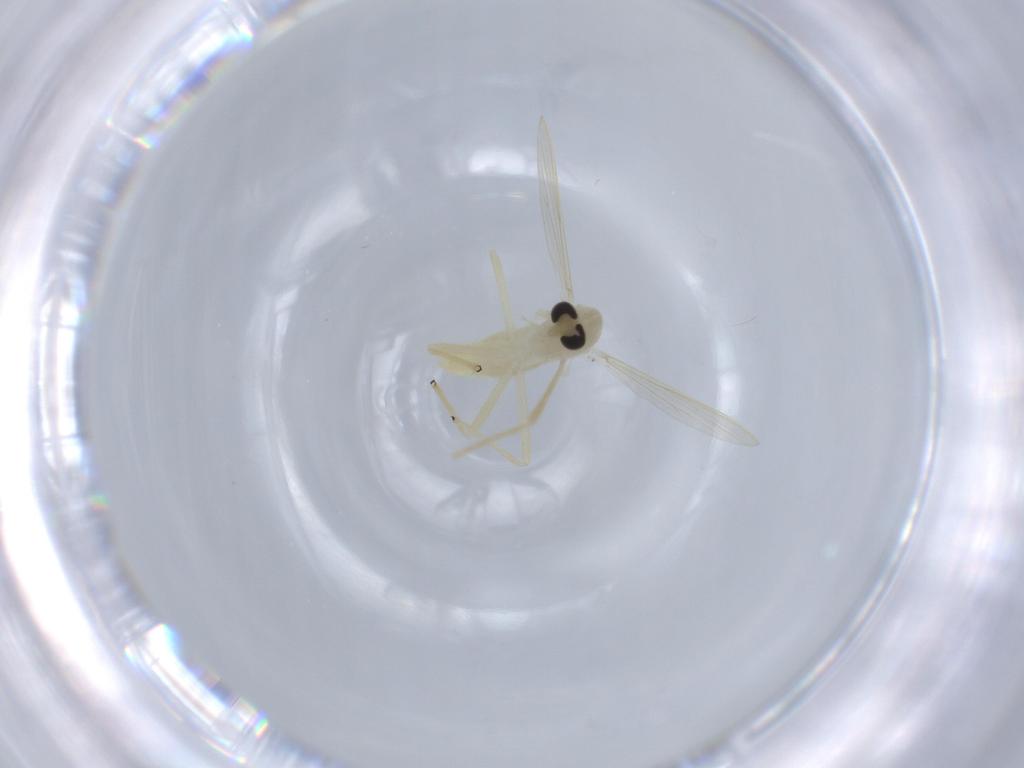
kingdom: Animalia
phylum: Arthropoda
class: Insecta
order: Diptera
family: Chironomidae
